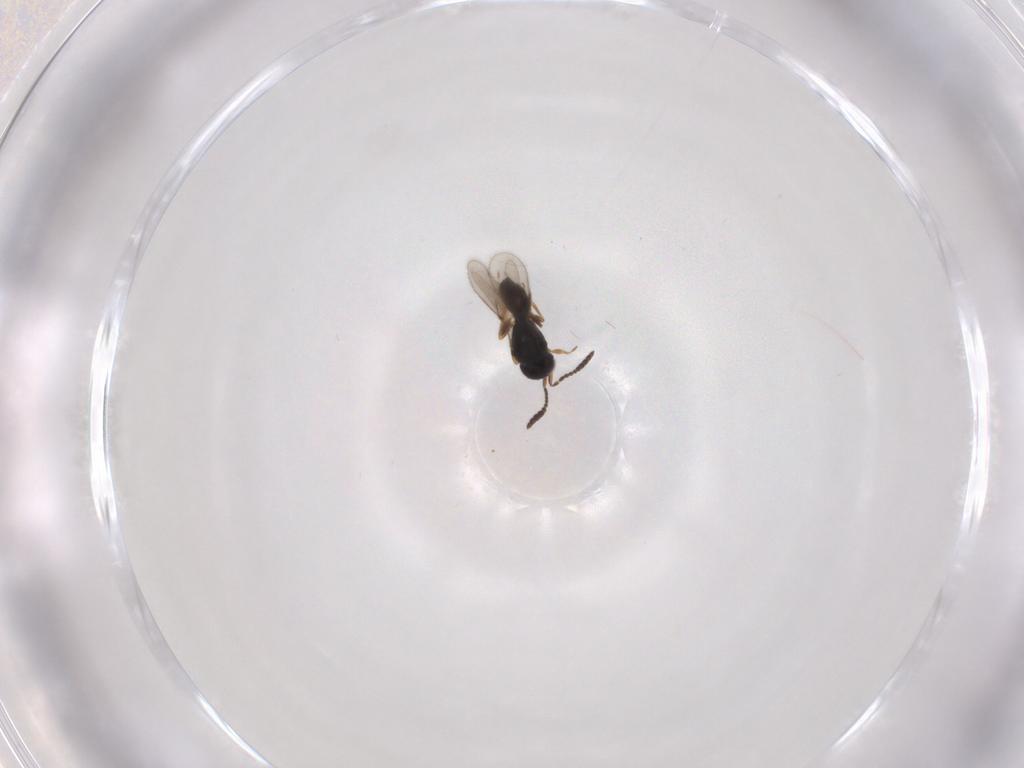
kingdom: Animalia
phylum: Arthropoda
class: Insecta
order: Hymenoptera
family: Scelionidae
